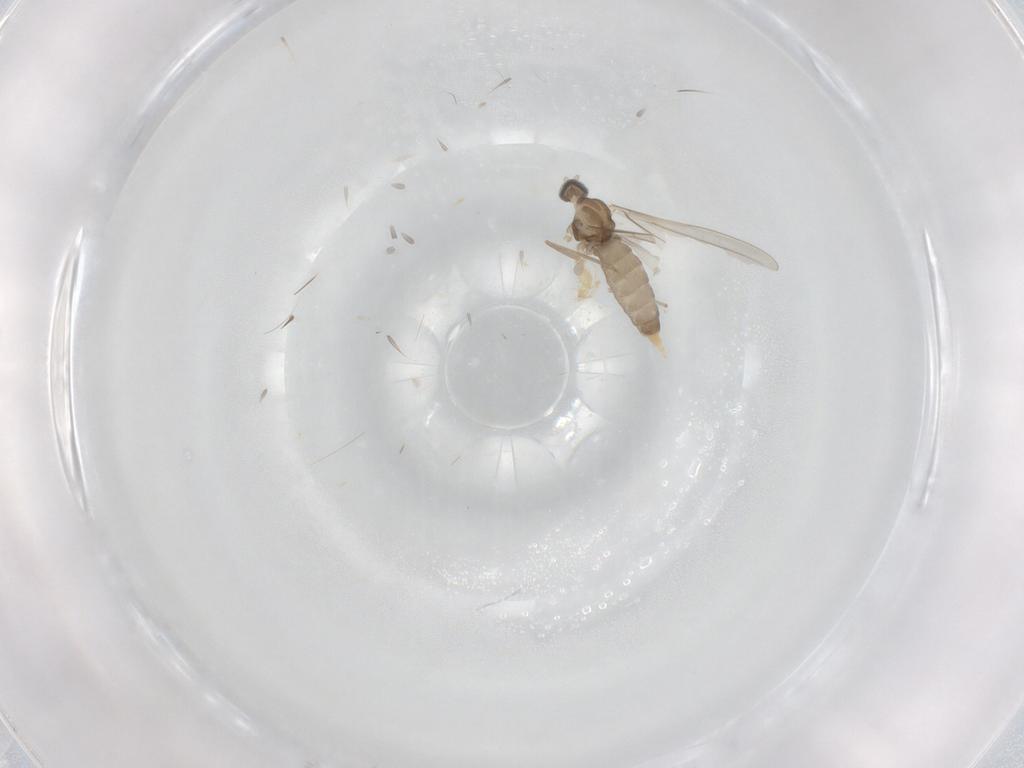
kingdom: Animalia
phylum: Arthropoda
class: Insecta
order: Diptera
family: Cecidomyiidae
